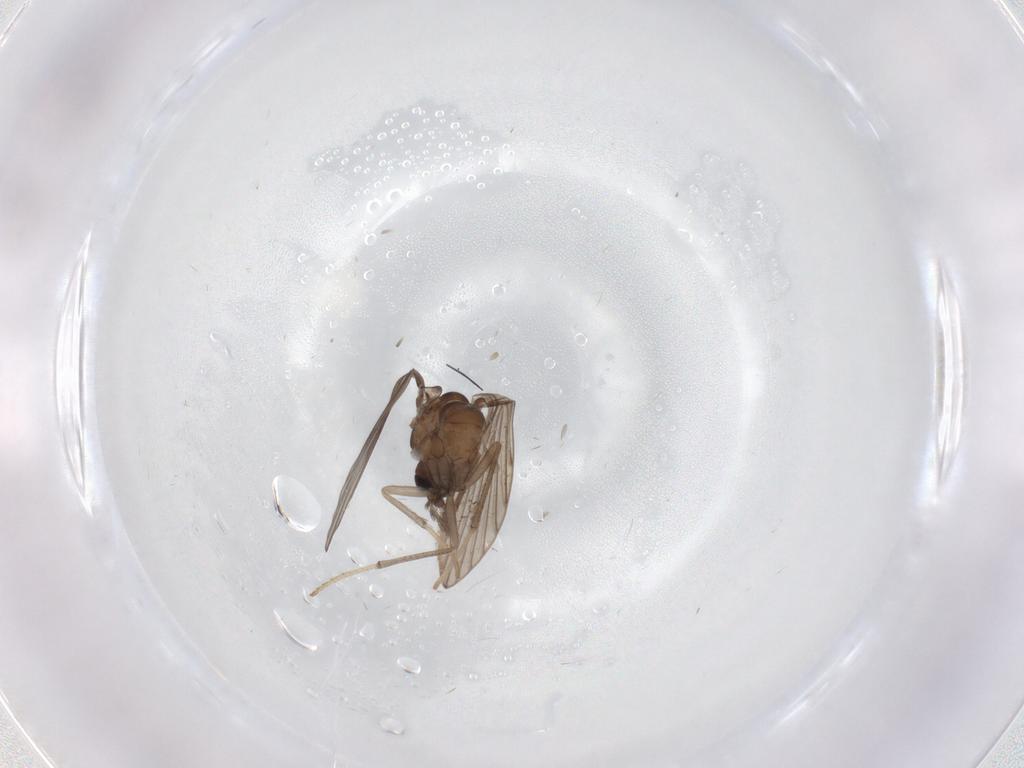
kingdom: Animalia
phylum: Arthropoda
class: Insecta
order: Diptera
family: Psychodidae
